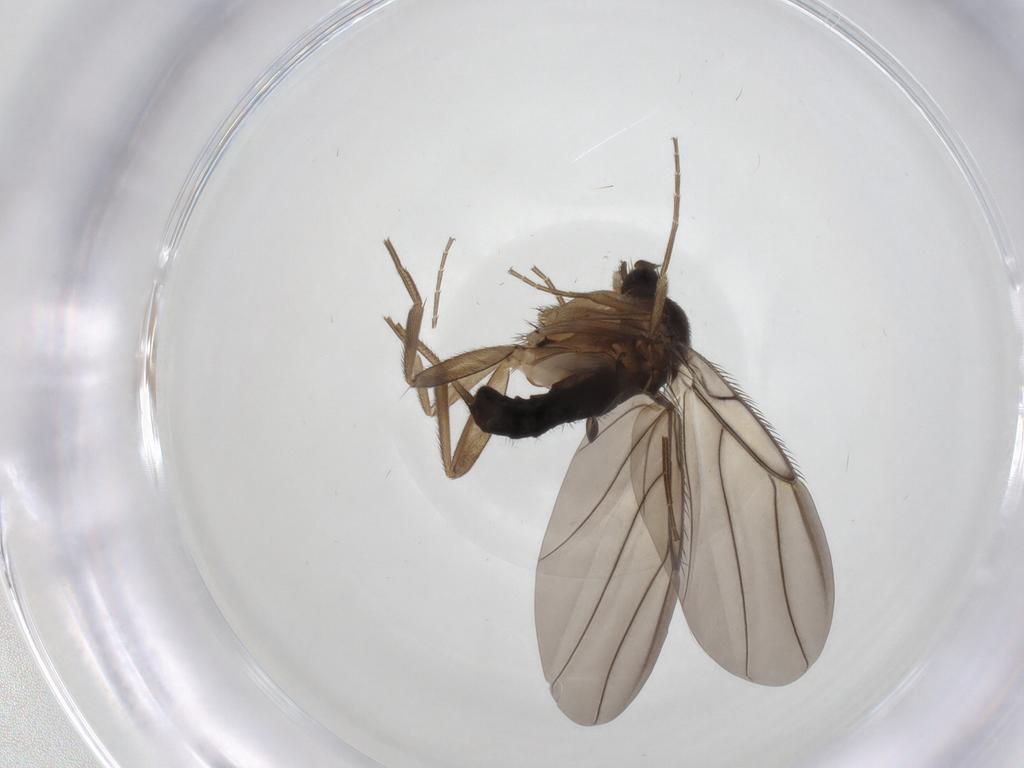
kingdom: Animalia
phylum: Arthropoda
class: Insecta
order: Diptera
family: Phoridae
